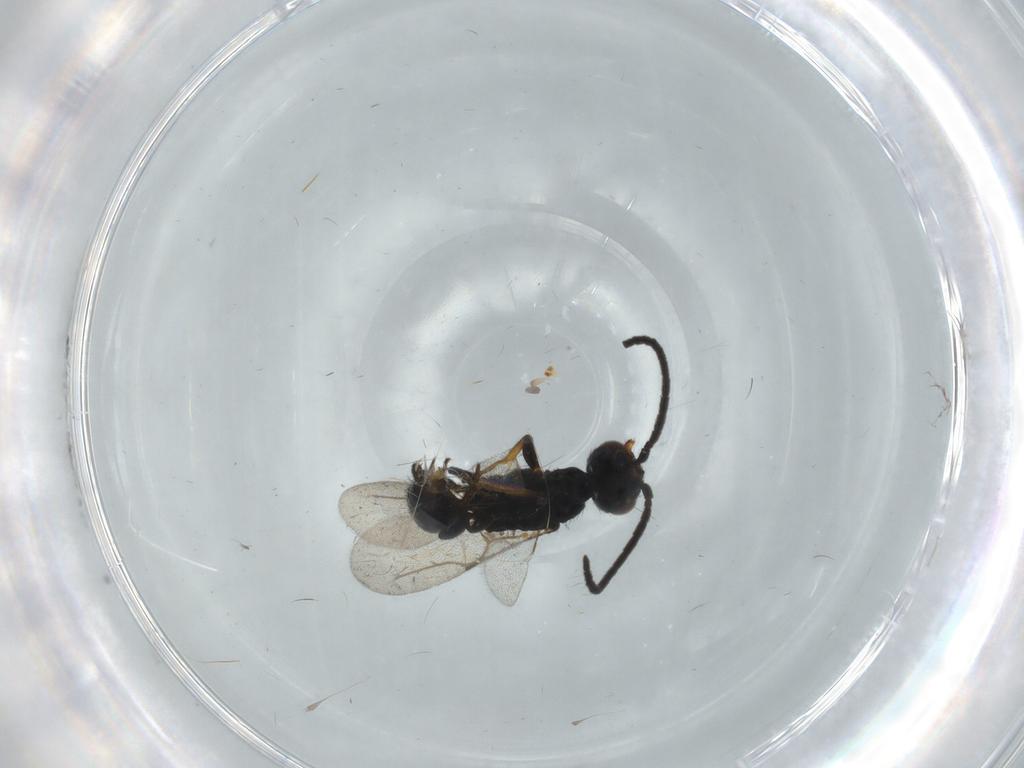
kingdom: Animalia
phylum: Arthropoda
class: Insecta
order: Hymenoptera
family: Bethylidae
